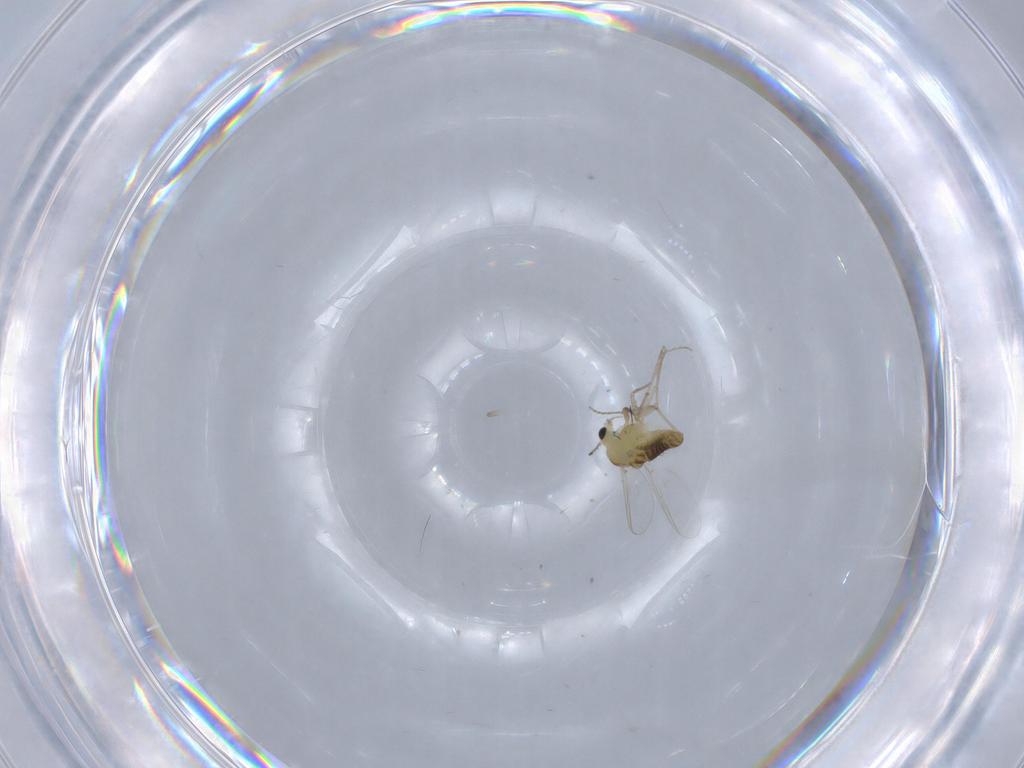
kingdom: Animalia
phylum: Arthropoda
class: Insecta
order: Diptera
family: Chironomidae
